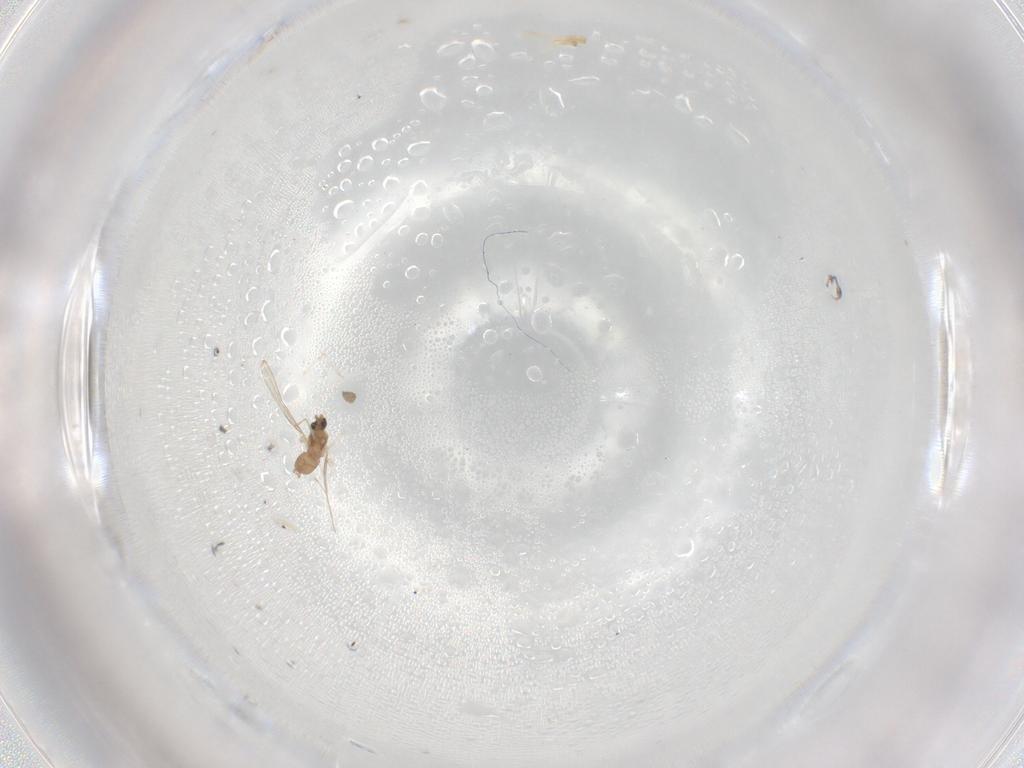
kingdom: Animalia
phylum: Arthropoda
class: Insecta
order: Diptera
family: Cecidomyiidae
